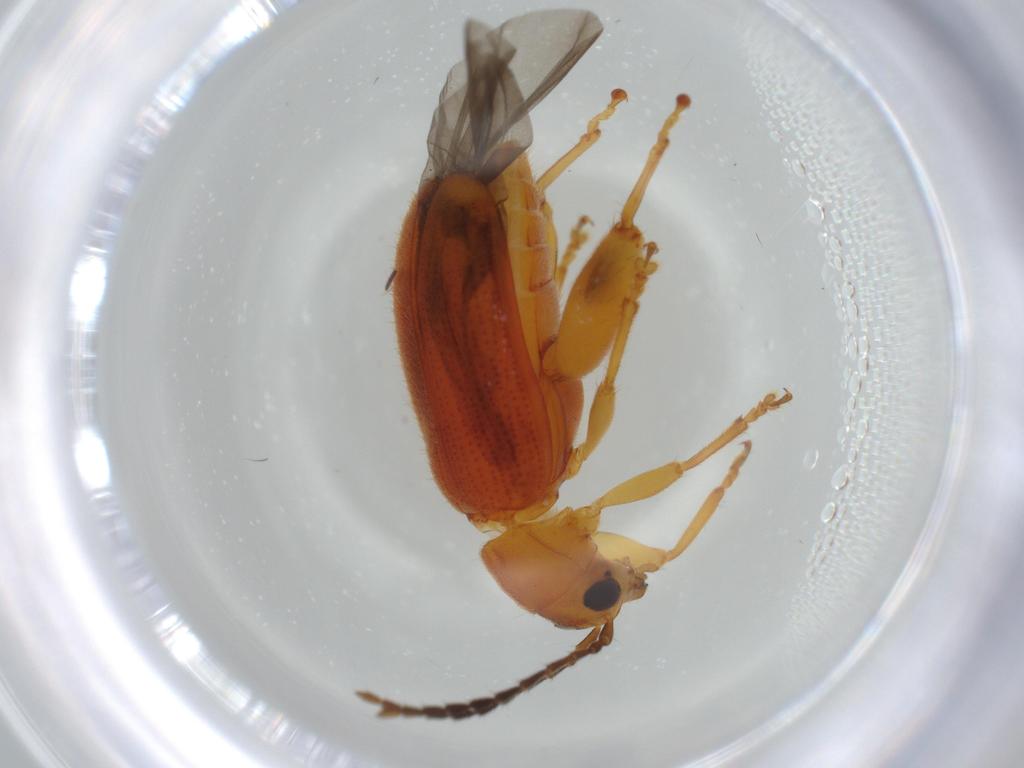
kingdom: Animalia
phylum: Arthropoda
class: Insecta
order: Coleoptera
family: Chrysomelidae
